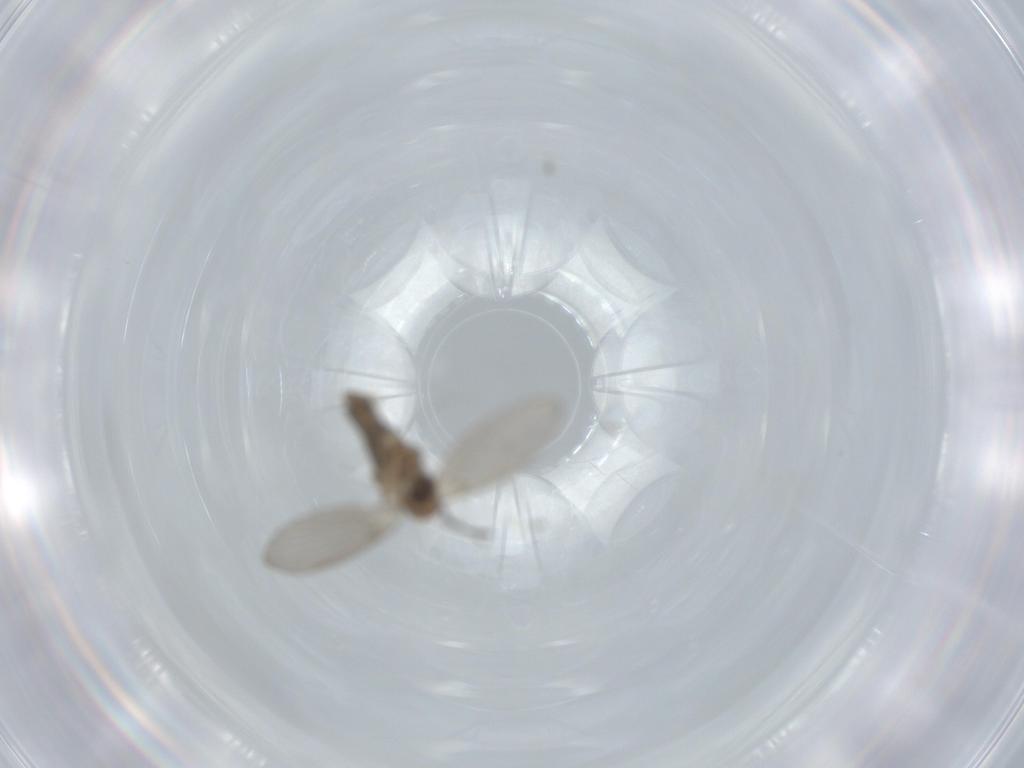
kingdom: Animalia
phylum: Arthropoda
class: Insecta
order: Diptera
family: Sciaridae
